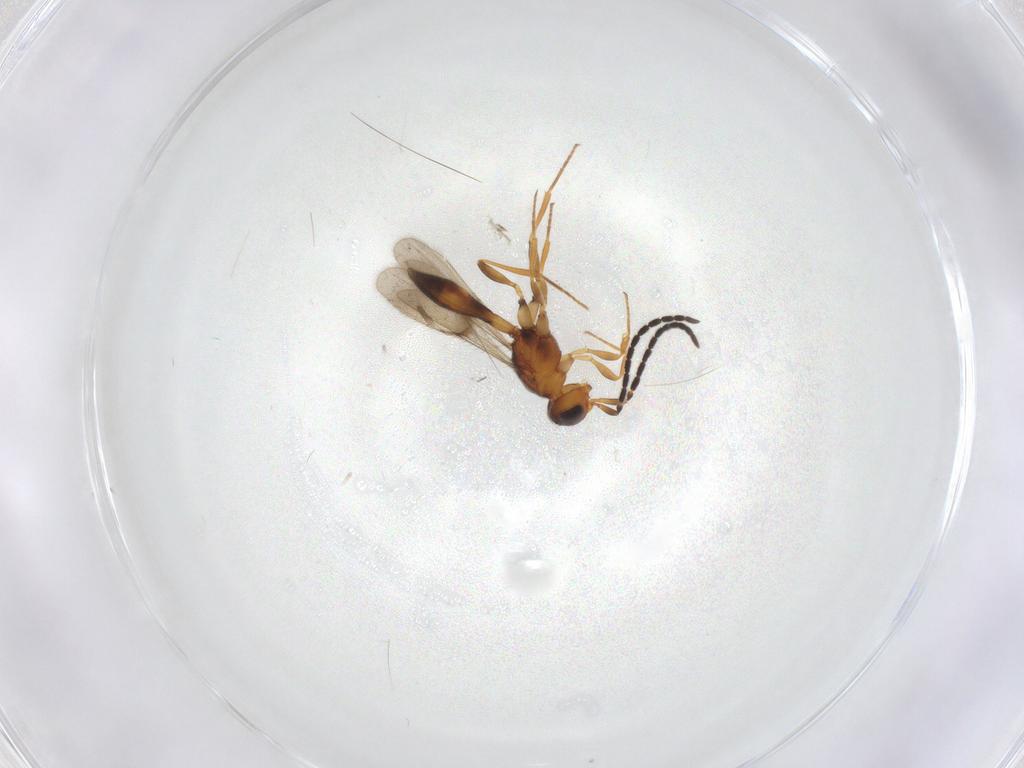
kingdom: Animalia
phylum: Arthropoda
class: Insecta
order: Hymenoptera
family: Scelionidae
